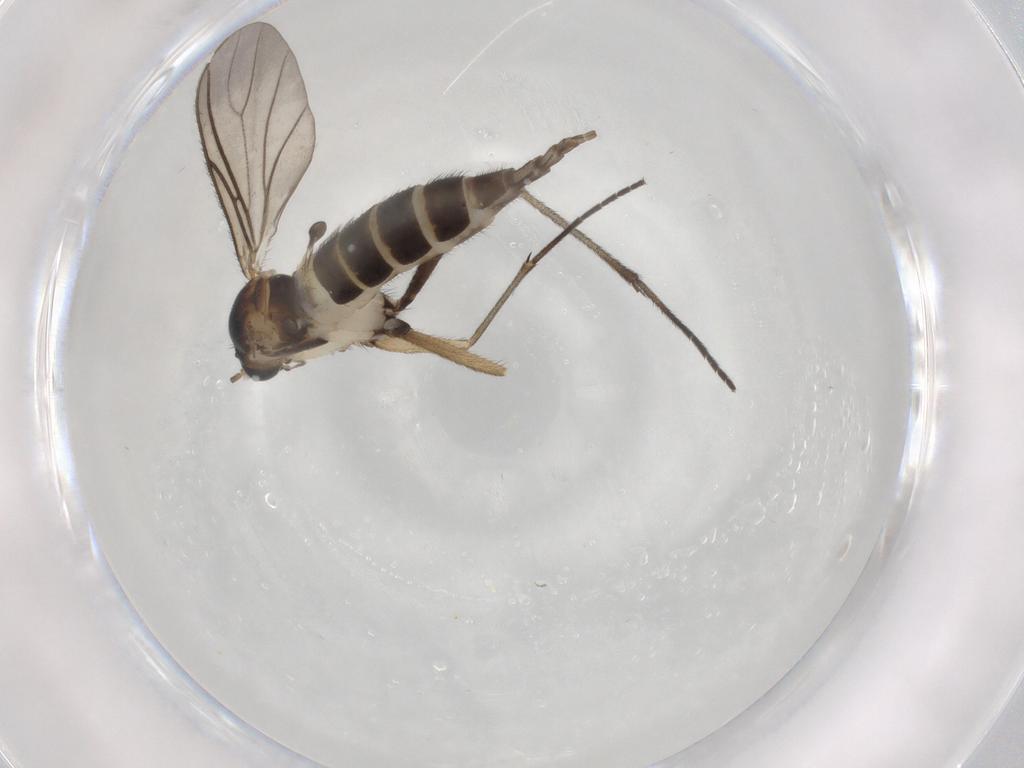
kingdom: Animalia
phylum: Arthropoda
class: Insecta
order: Diptera
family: Sciaridae
